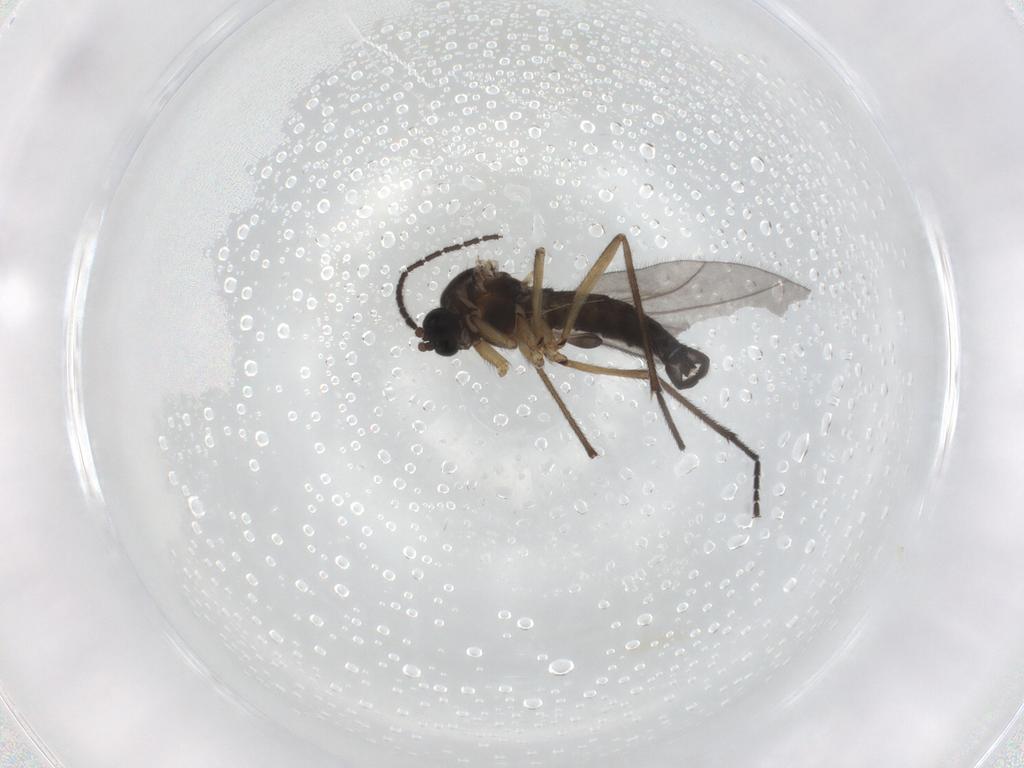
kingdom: Animalia
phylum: Arthropoda
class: Insecta
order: Diptera
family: Sciaridae
